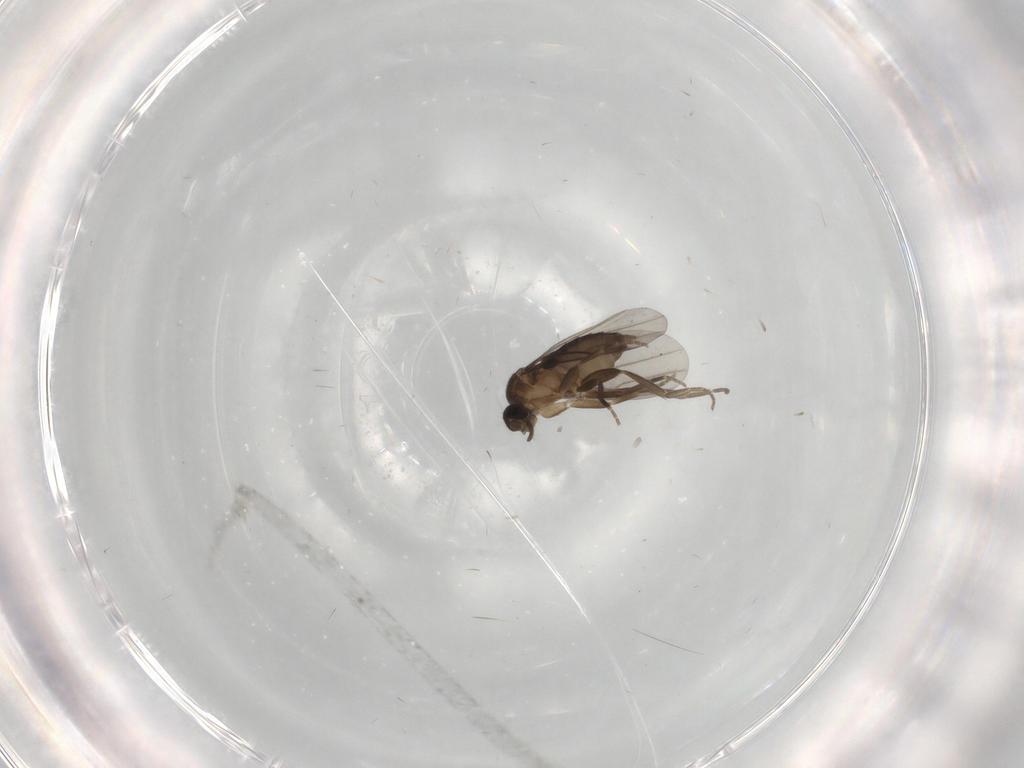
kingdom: Animalia
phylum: Arthropoda
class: Insecta
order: Diptera
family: Phoridae
